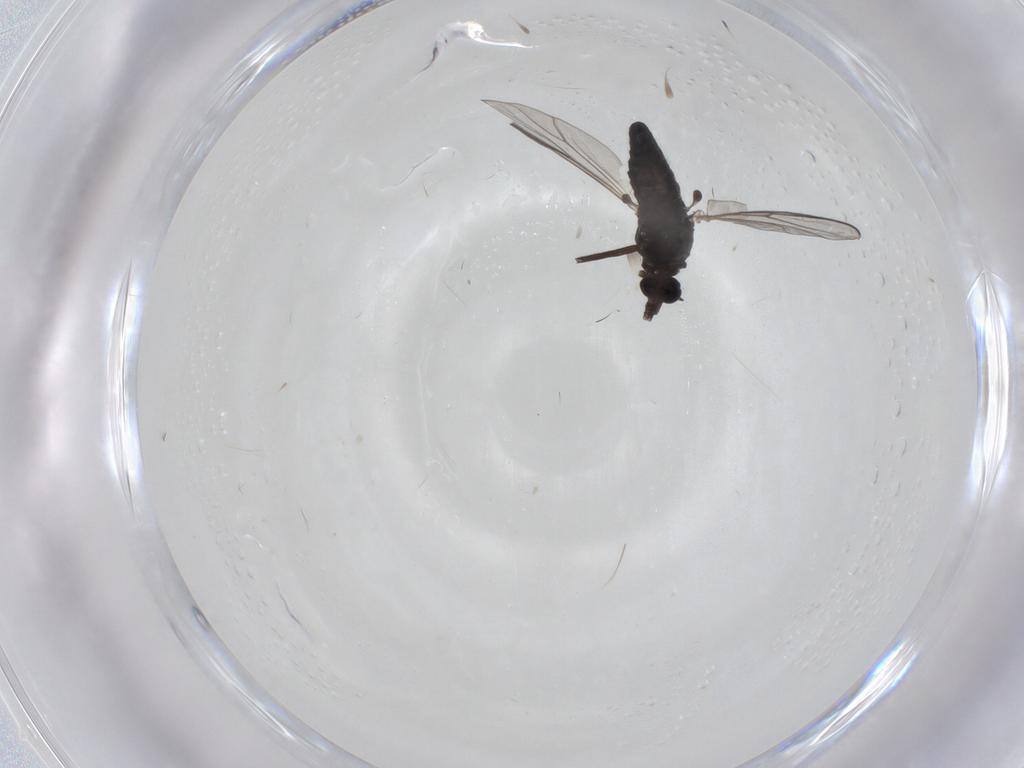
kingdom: Animalia
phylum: Arthropoda
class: Insecta
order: Diptera
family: Chironomidae
